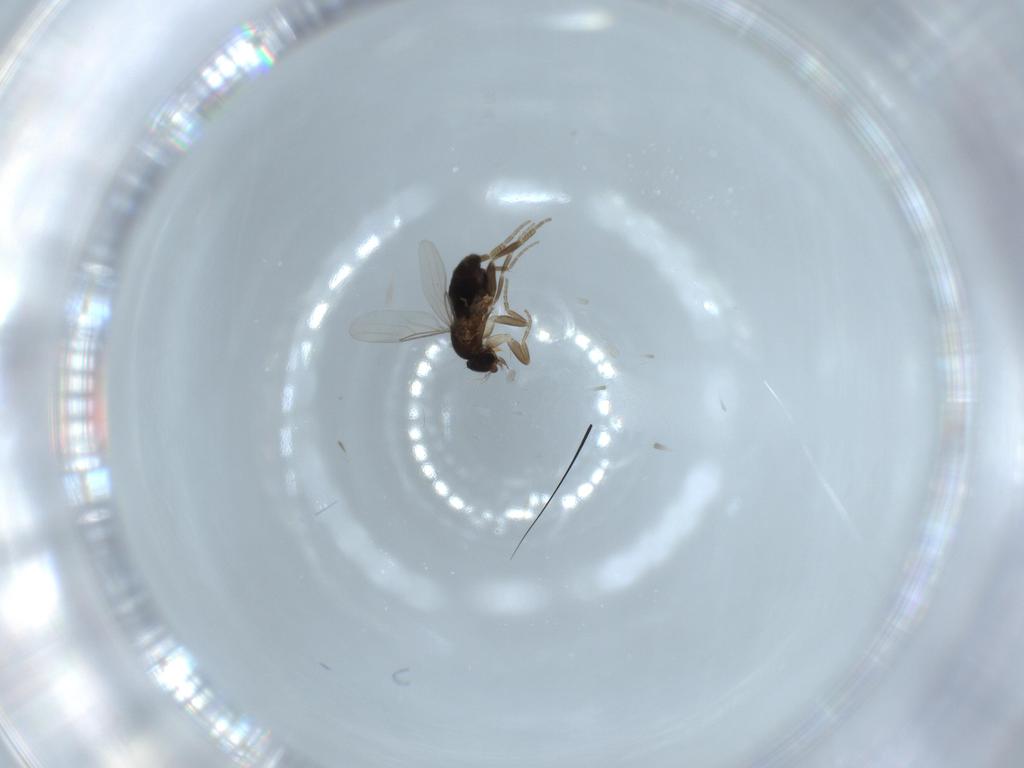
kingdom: Animalia
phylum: Arthropoda
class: Insecta
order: Diptera
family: Phoridae
